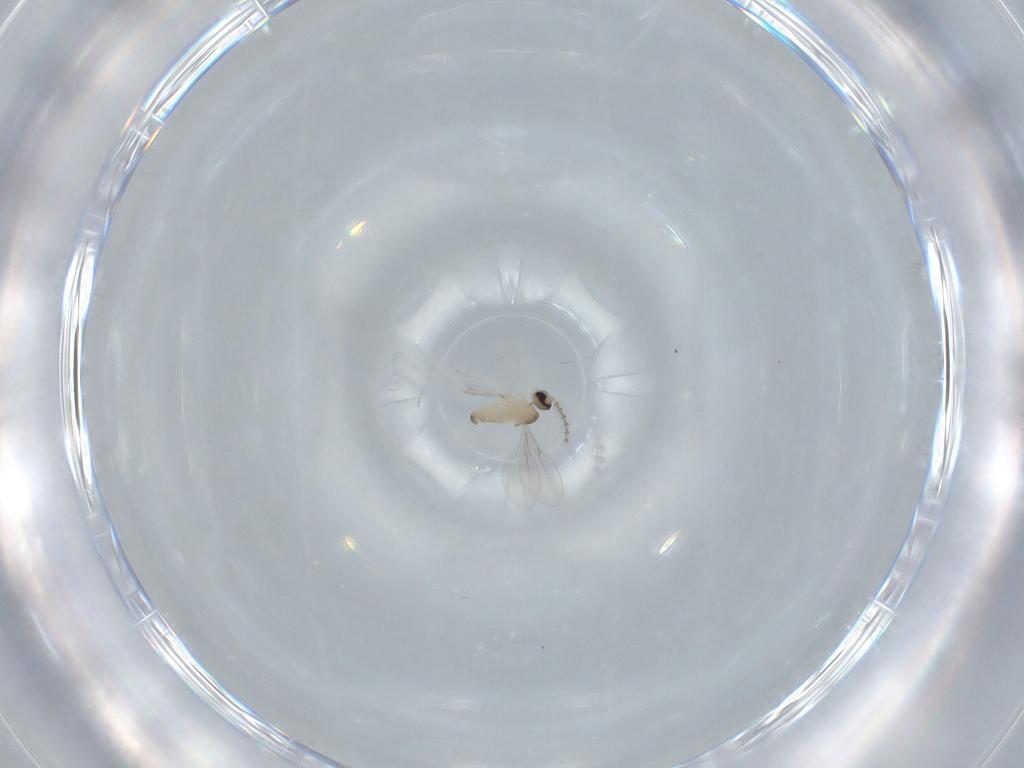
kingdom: Animalia
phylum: Arthropoda
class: Insecta
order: Diptera
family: Cecidomyiidae
